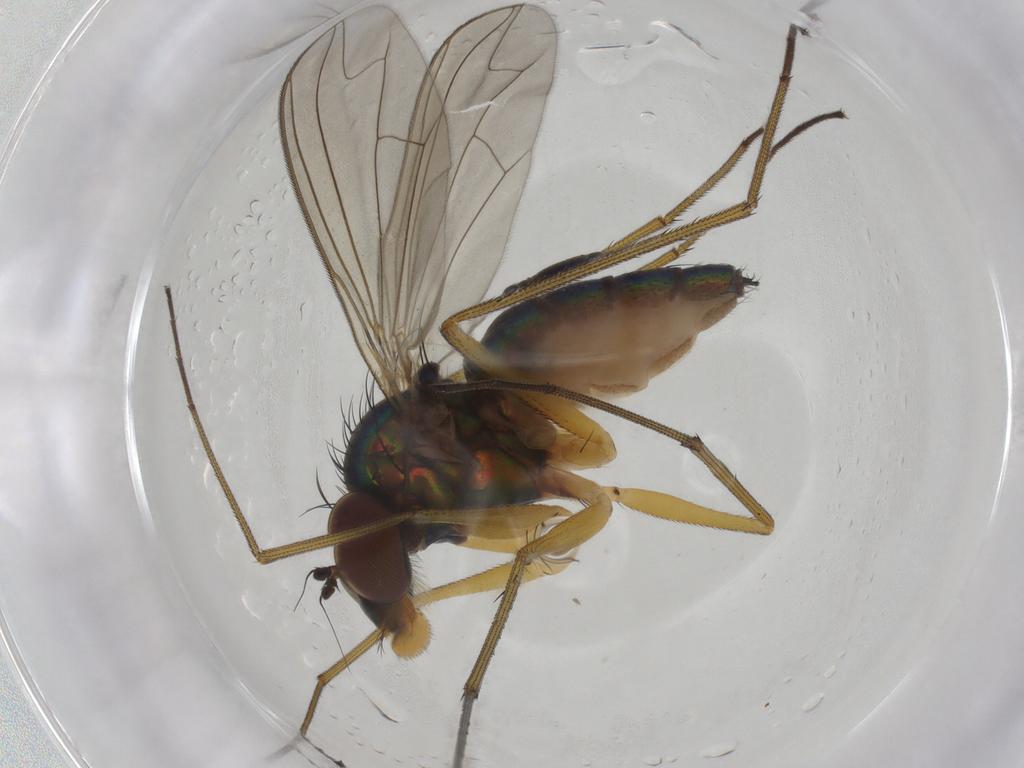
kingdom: Animalia
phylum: Arthropoda
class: Insecta
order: Diptera
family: Dolichopodidae
